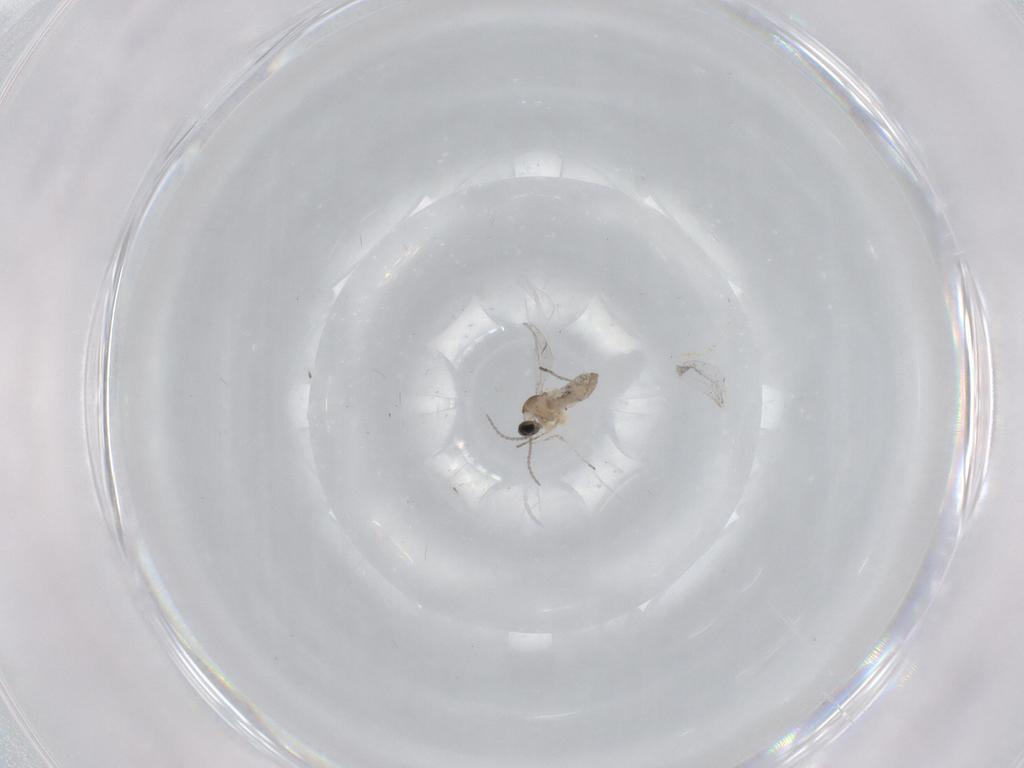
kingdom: Animalia
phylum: Arthropoda
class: Insecta
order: Diptera
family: Cecidomyiidae
